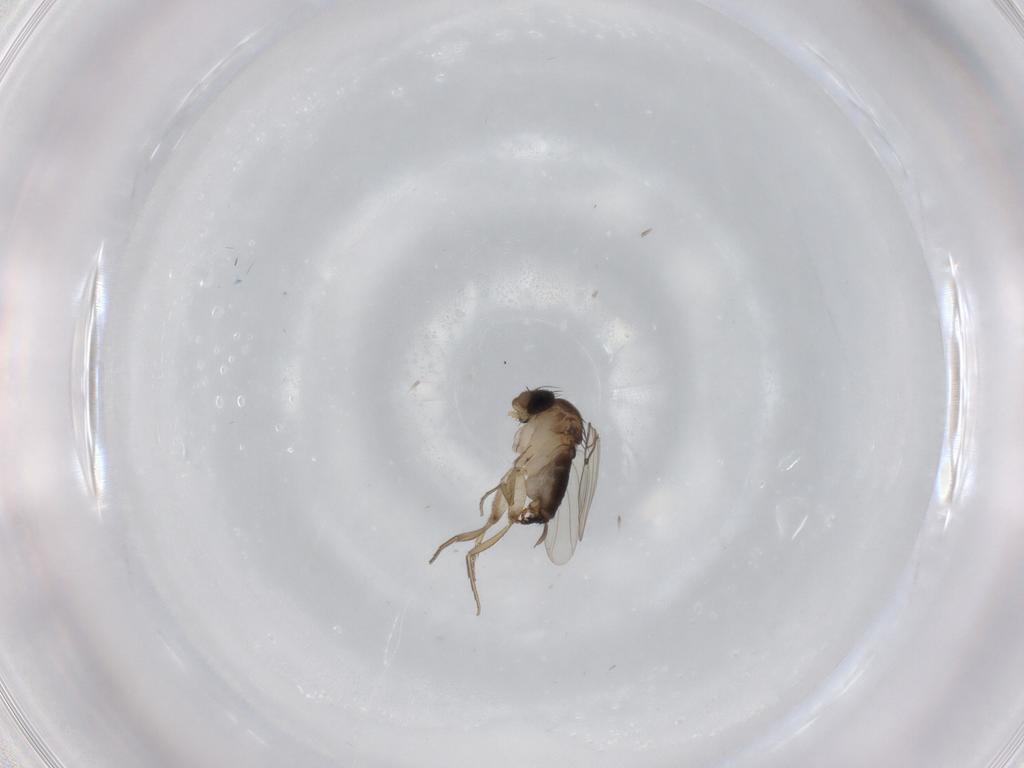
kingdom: Animalia
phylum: Arthropoda
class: Insecta
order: Diptera
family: Phoridae
